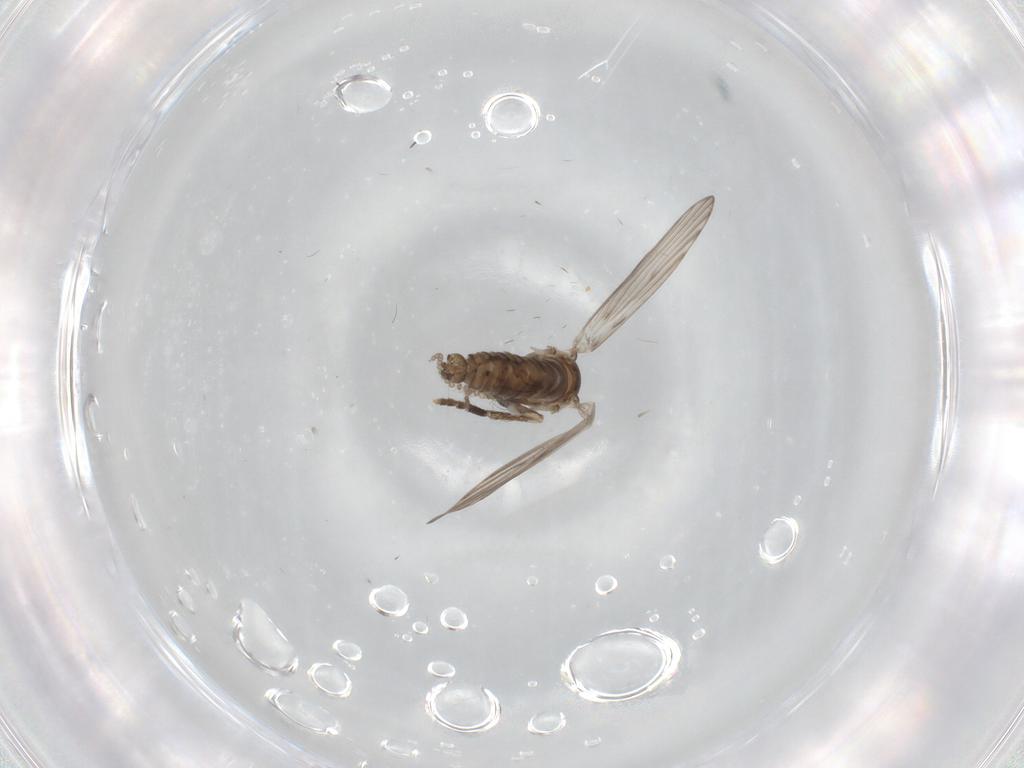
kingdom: Animalia
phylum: Arthropoda
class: Insecta
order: Diptera
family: Psychodidae
